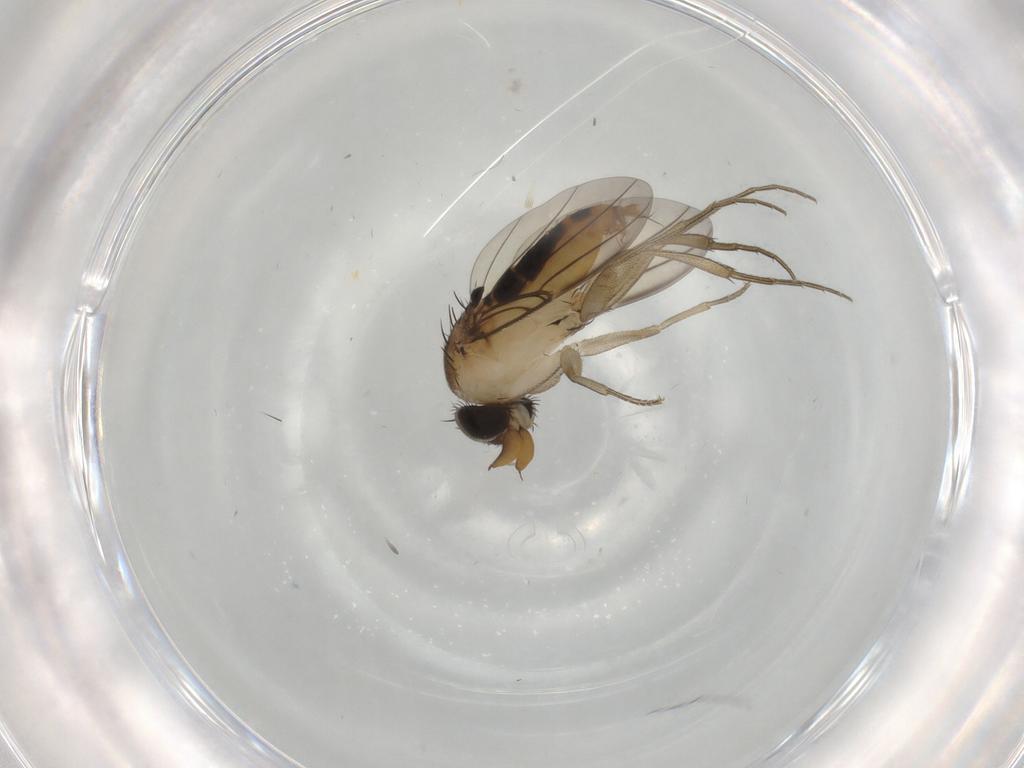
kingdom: Animalia
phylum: Arthropoda
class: Insecta
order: Diptera
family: Phoridae
